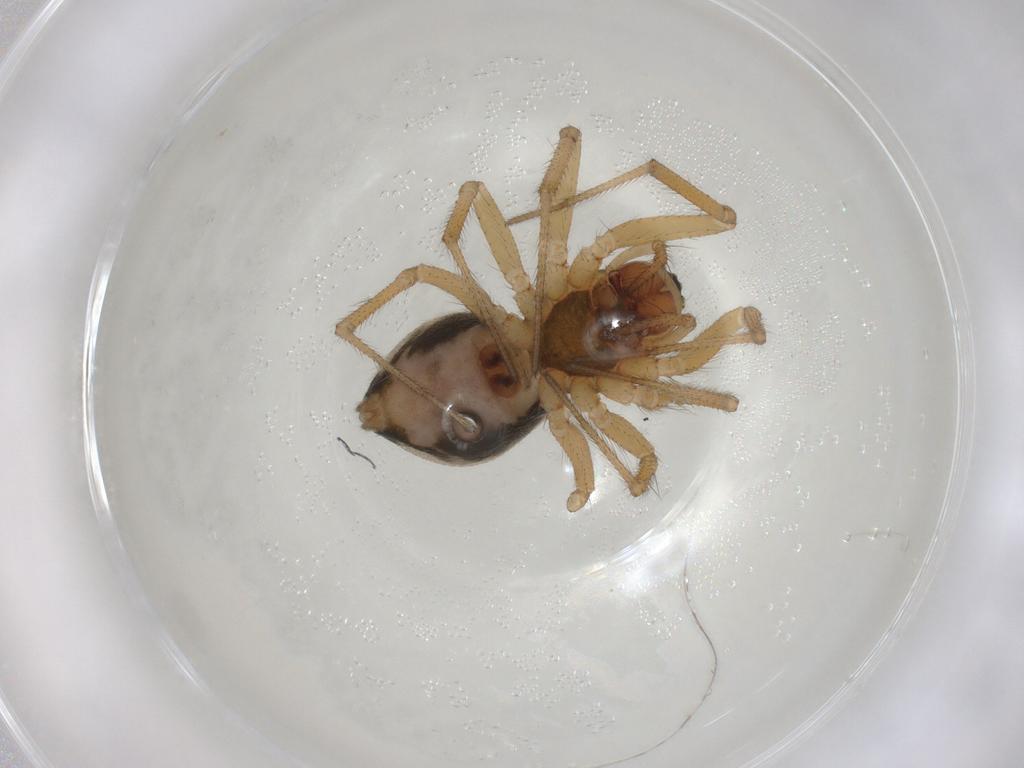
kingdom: Animalia
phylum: Arthropoda
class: Arachnida
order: Araneae
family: Linyphiidae
